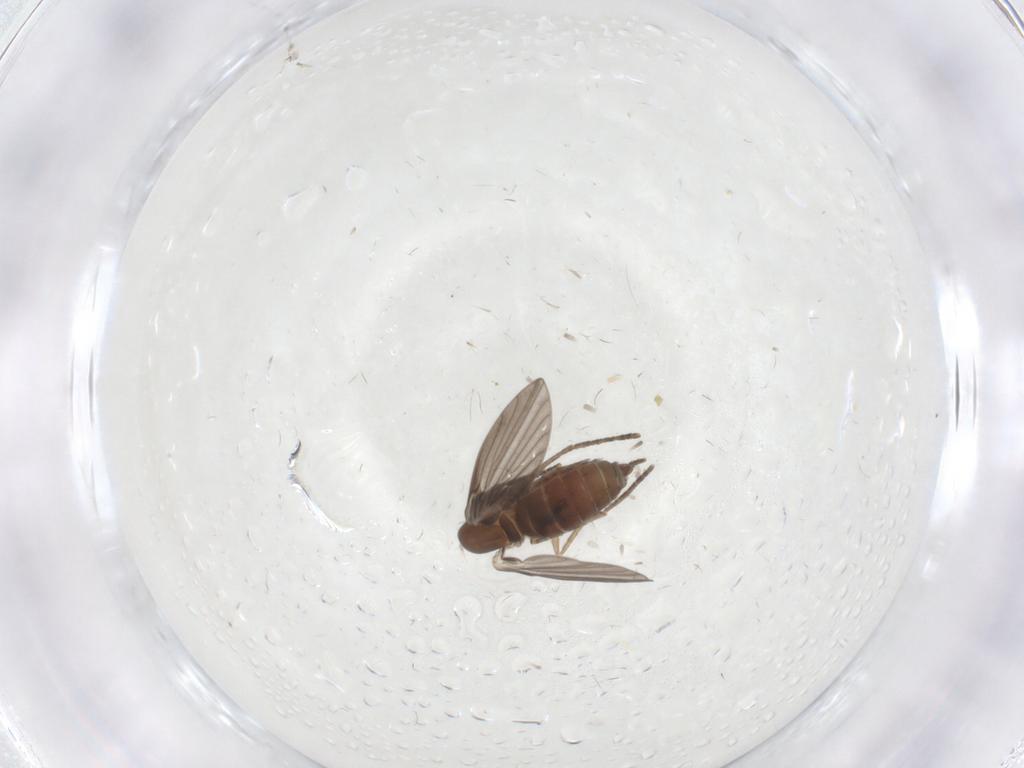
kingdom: Animalia
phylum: Arthropoda
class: Insecta
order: Diptera
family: Psychodidae
